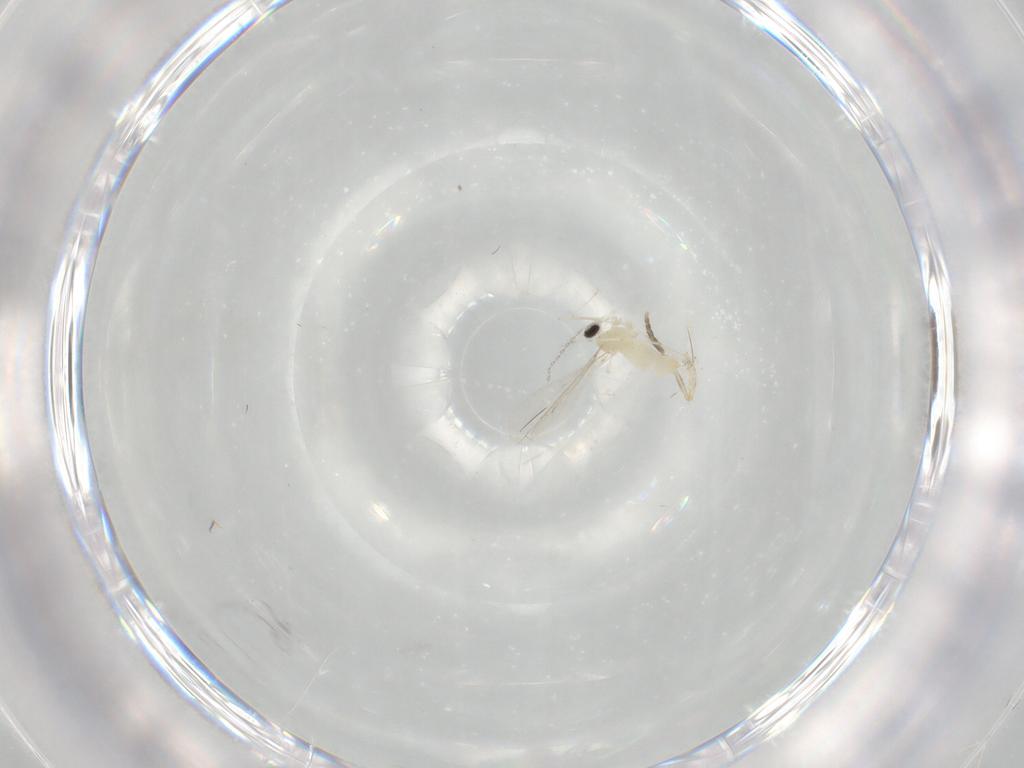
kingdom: Animalia
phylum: Arthropoda
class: Insecta
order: Diptera
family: Cecidomyiidae
